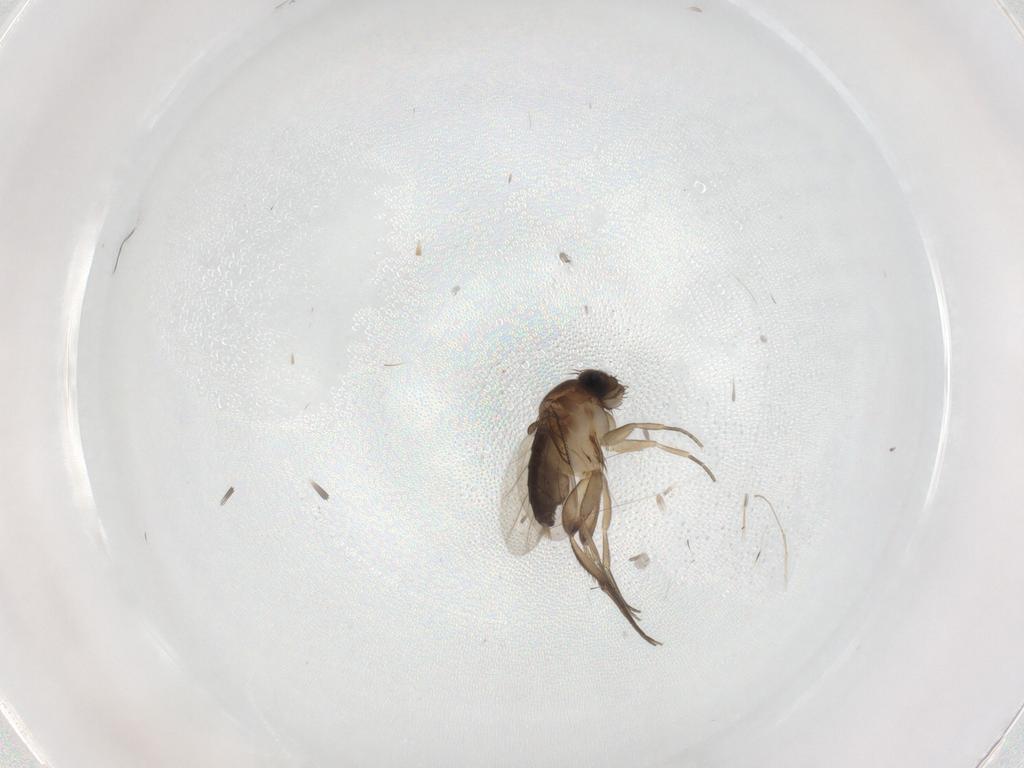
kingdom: Animalia
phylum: Arthropoda
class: Insecta
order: Diptera
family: Phoridae
